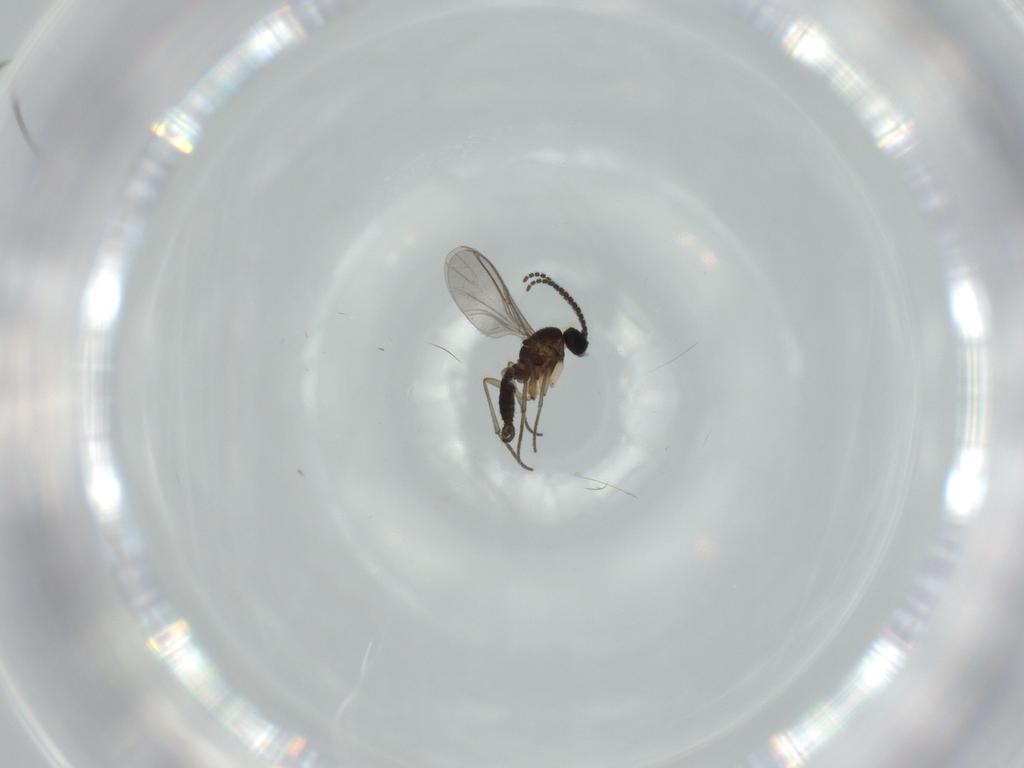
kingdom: Animalia
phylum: Arthropoda
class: Insecta
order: Diptera
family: Sciaridae
